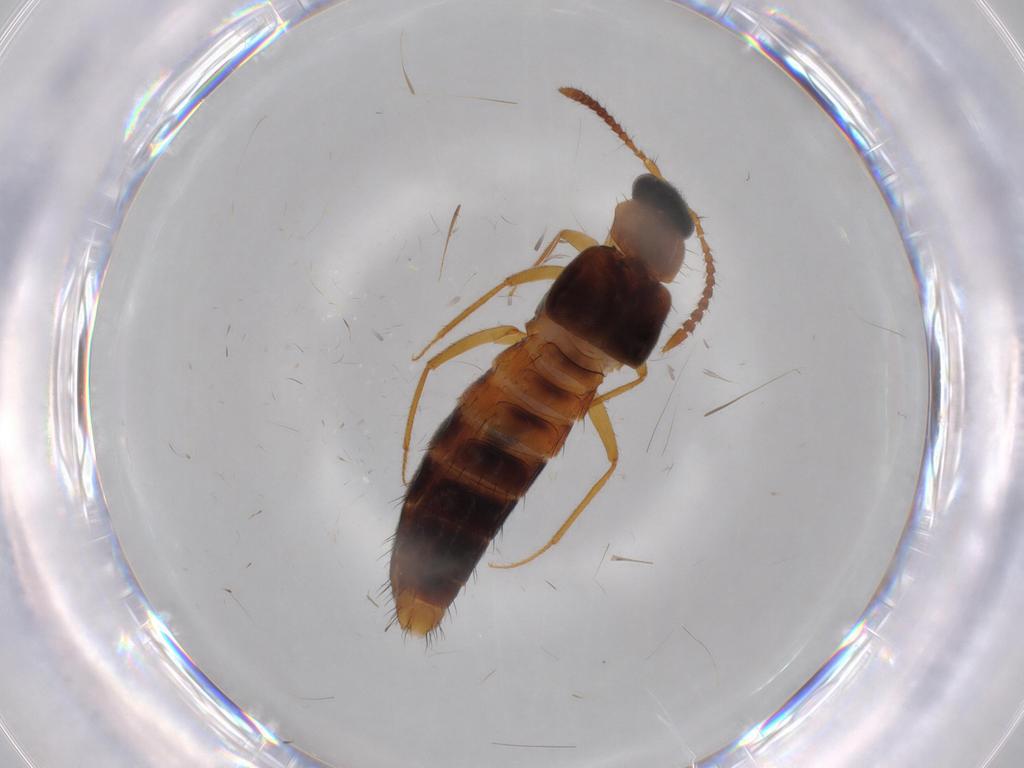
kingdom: Animalia
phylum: Arthropoda
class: Insecta
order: Coleoptera
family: Staphylinidae
